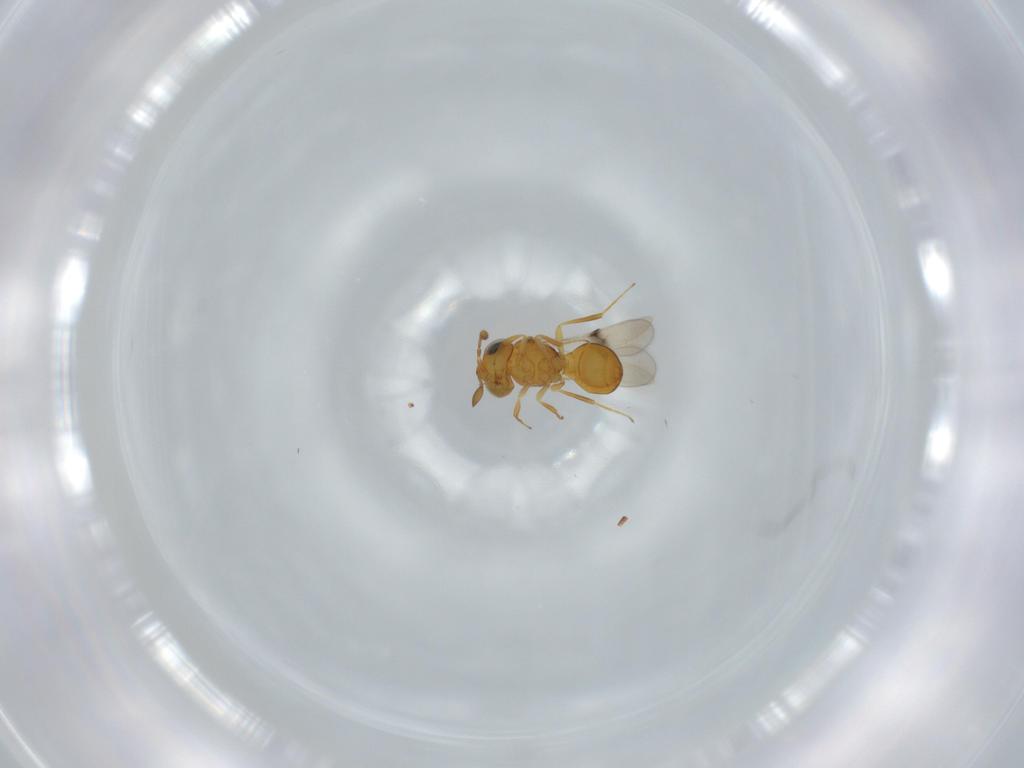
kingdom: Animalia
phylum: Arthropoda
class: Insecta
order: Hymenoptera
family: Scelionidae
